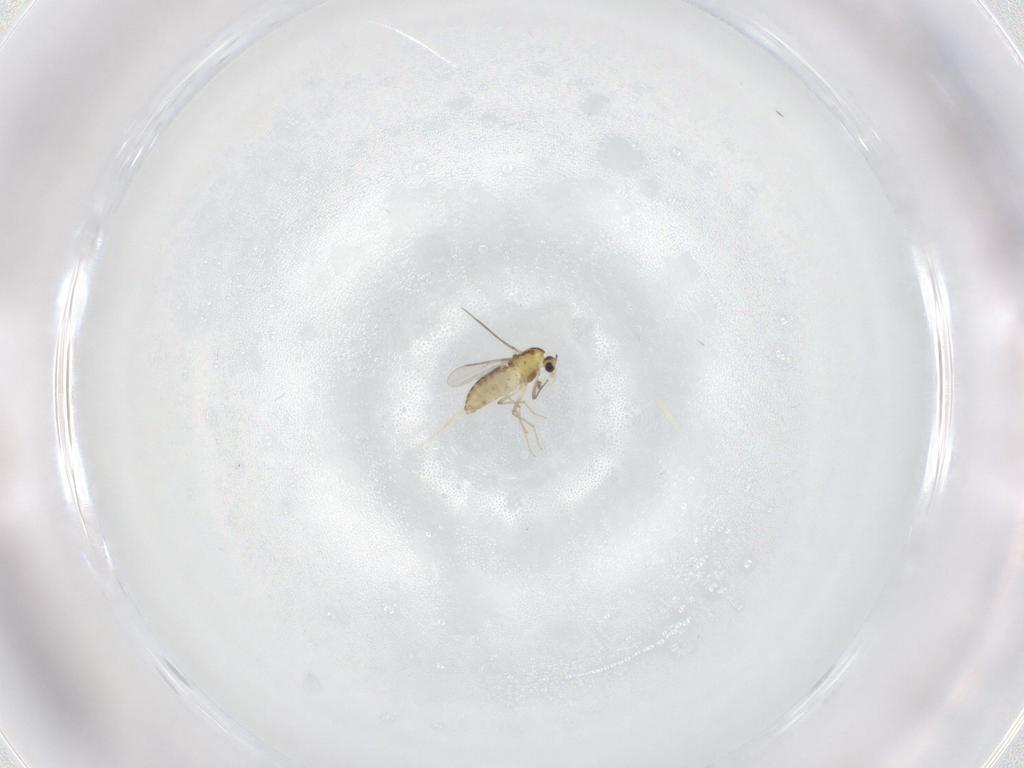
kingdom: Animalia
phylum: Arthropoda
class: Insecta
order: Diptera
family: Chironomidae
